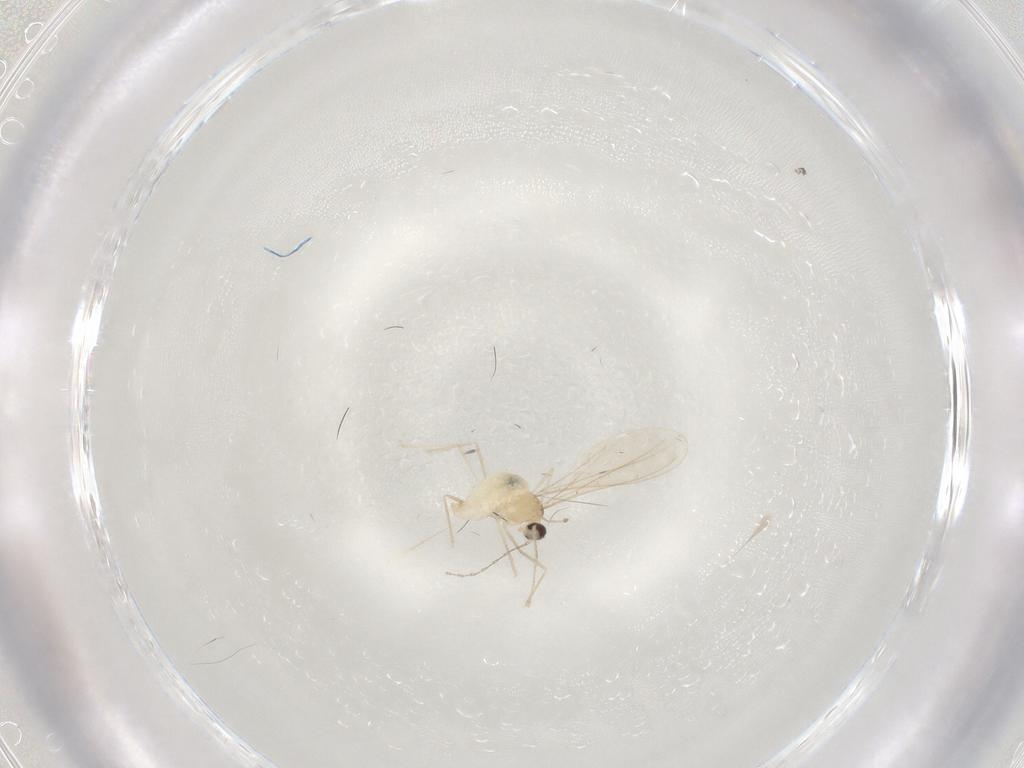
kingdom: Animalia
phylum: Arthropoda
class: Insecta
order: Diptera
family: Cecidomyiidae
